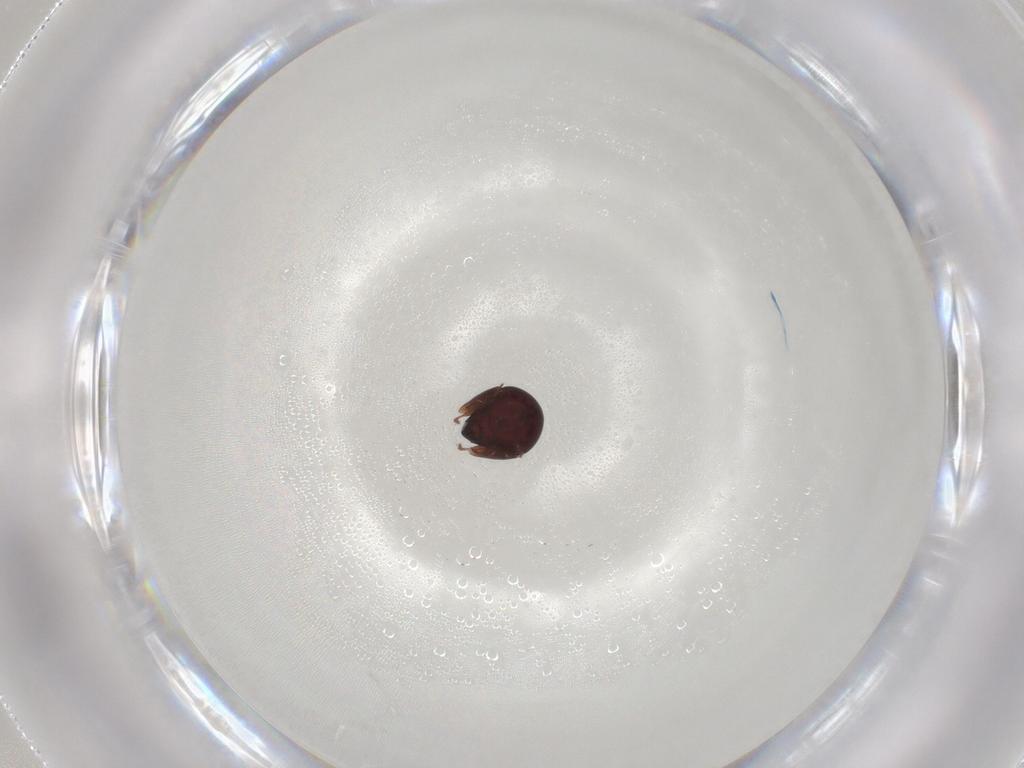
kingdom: Animalia
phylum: Arthropoda
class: Arachnida
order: Sarcoptiformes
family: Galumnidae
